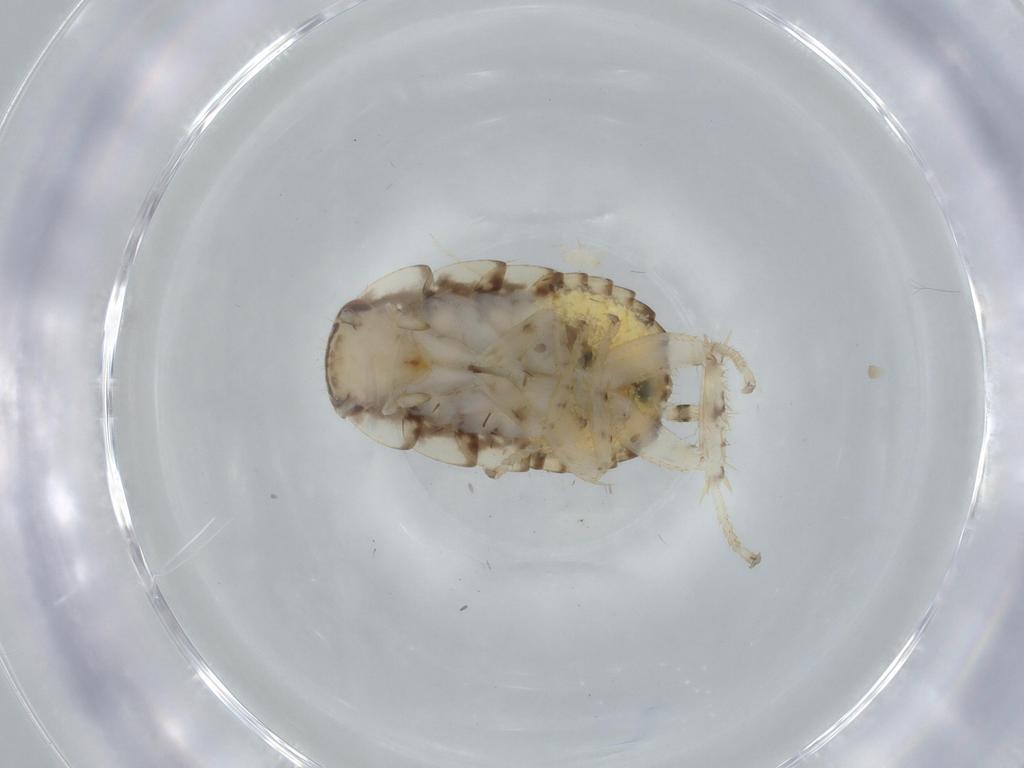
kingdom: Animalia
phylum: Arthropoda
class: Insecta
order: Blattodea
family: Ectobiidae
